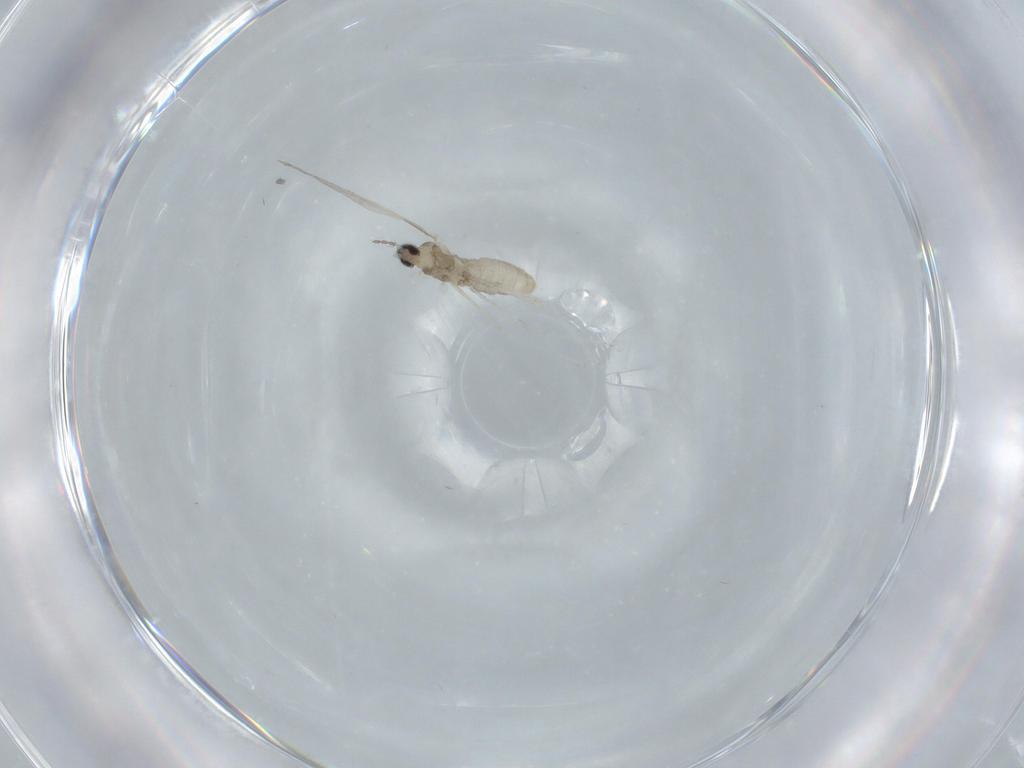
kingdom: Animalia
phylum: Arthropoda
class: Insecta
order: Diptera
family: Cecidomyiidae
